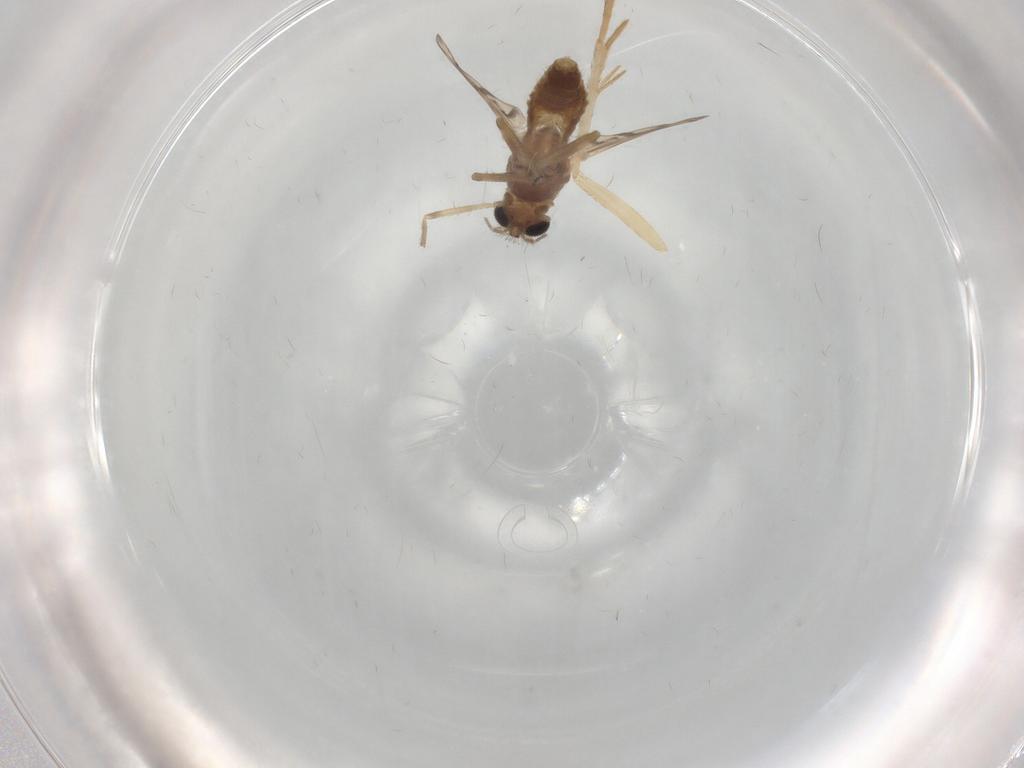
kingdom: Animalia
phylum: Arthropoda
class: Insecta
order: Diptera
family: Chironomidae
